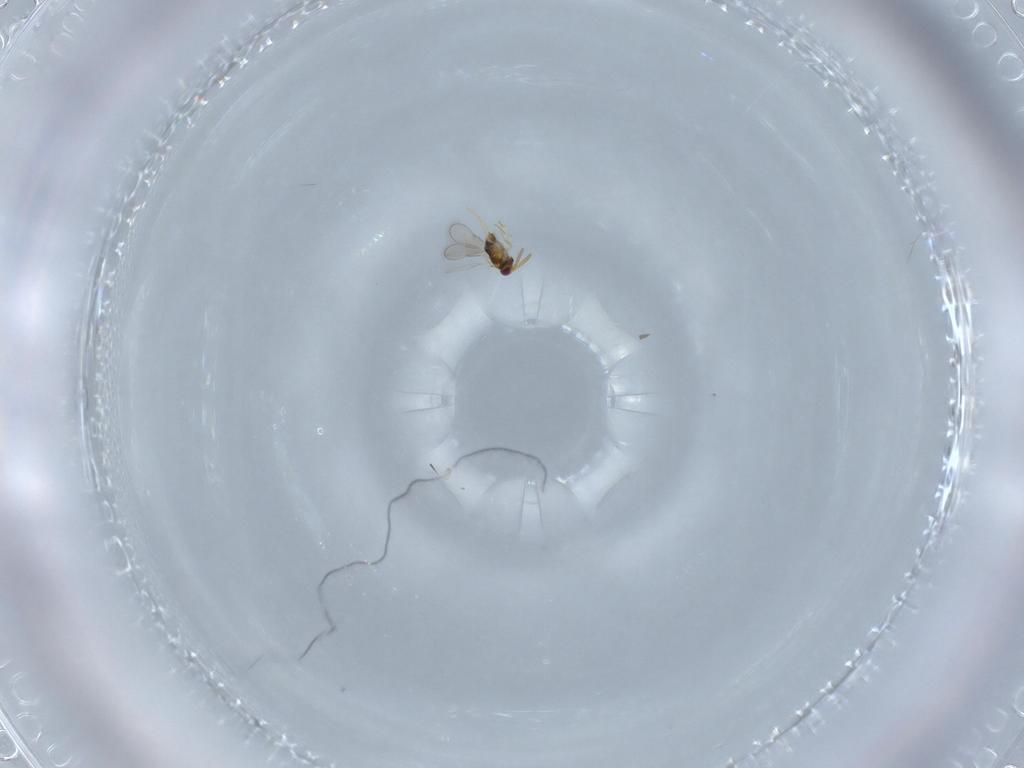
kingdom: Animalia
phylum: Arthropoda
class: Insecta
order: Hymenoptera
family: Aphelinidae
